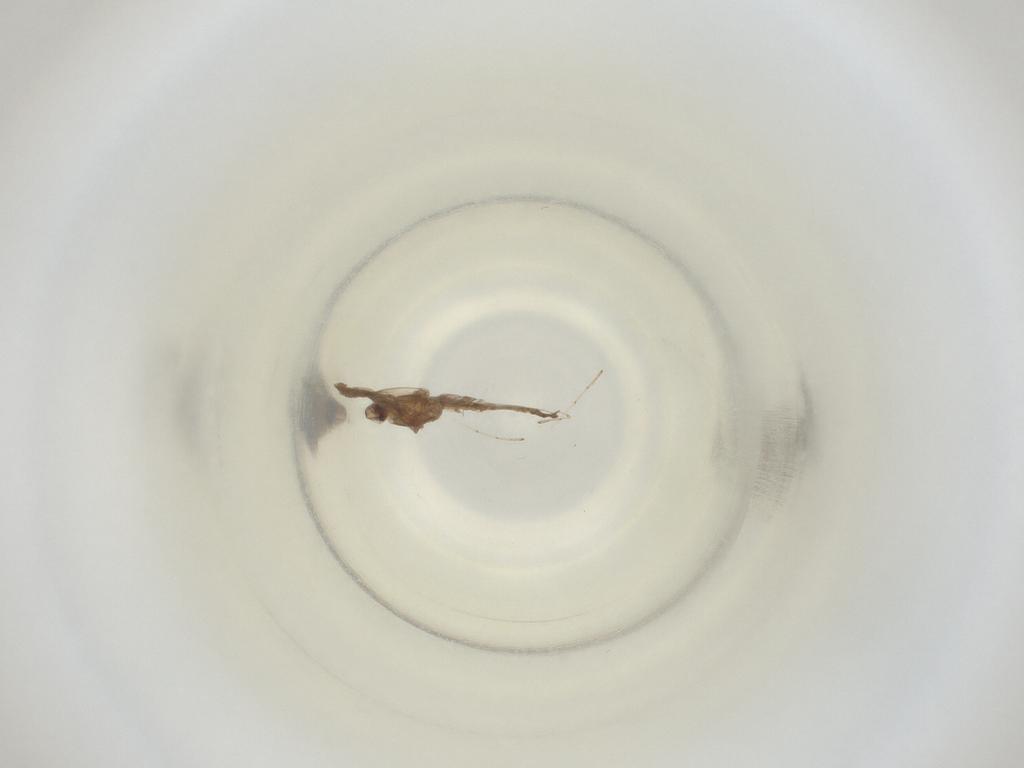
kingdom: Animalia
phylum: Arthropoda
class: Insecta
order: Diptera
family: Cecidomyiidae
